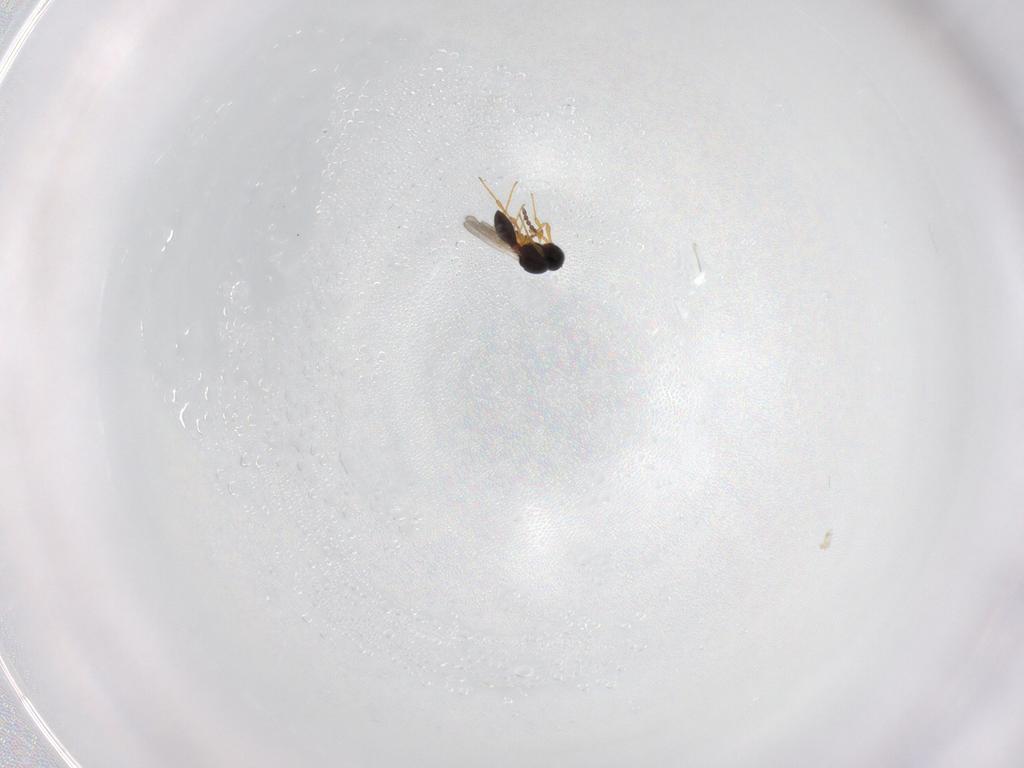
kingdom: Animalia
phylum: Arthropoda
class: Insecta
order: Hymenoptera
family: Platygastridae
